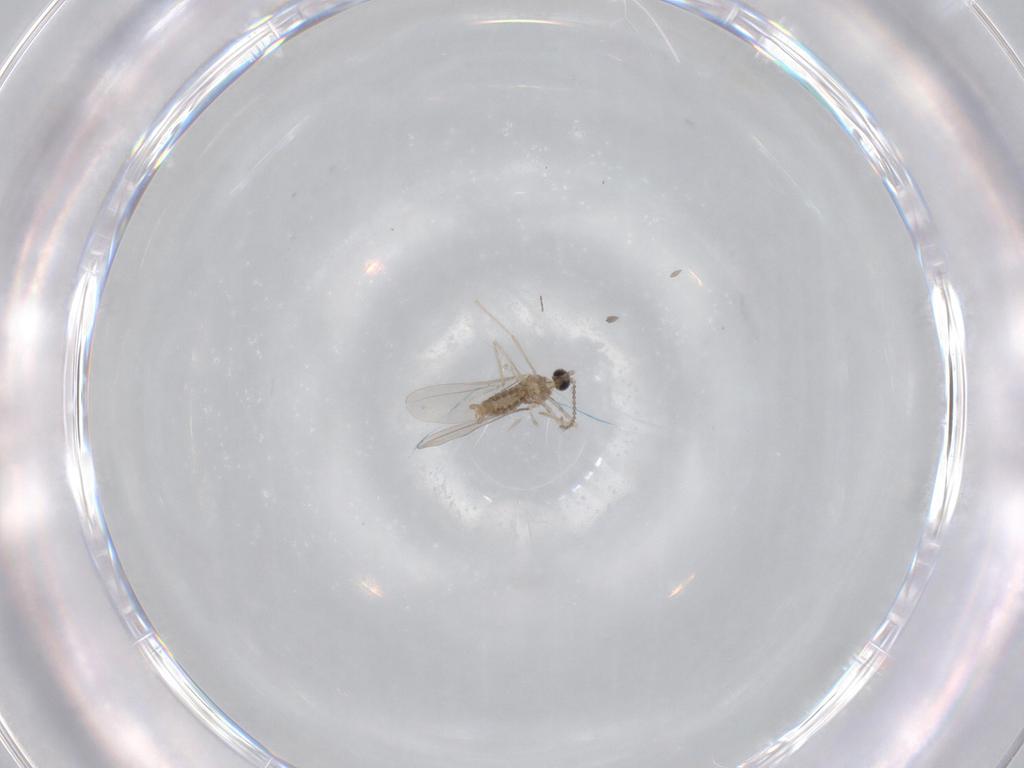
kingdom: Animalia
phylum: Arthropoda
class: Insecta
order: Diptera
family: Cecidomyiidae
